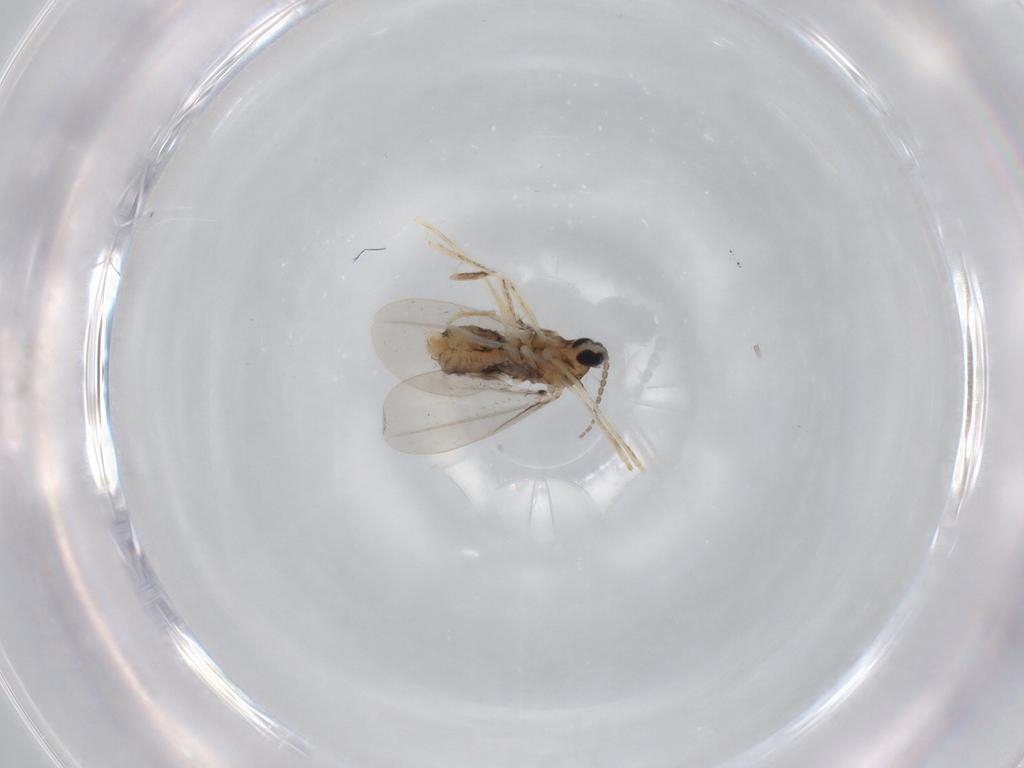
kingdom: Animalia
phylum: Arthropoda
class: Insecta
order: Diptera
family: Cecidomyiidae
